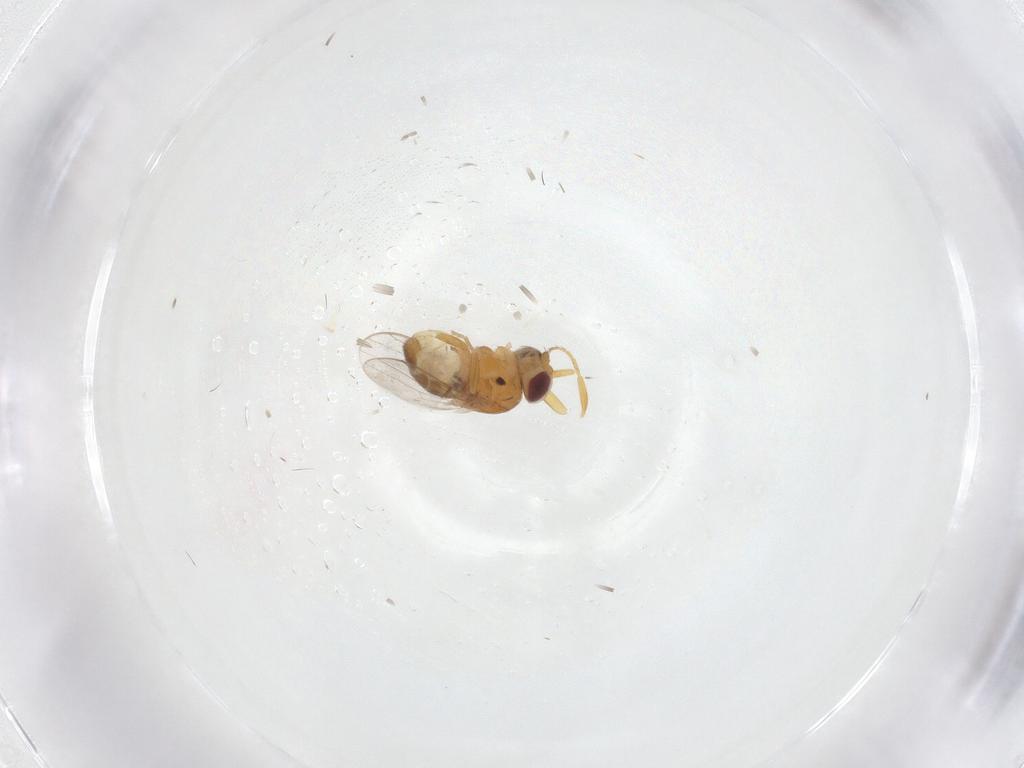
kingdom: Animalia
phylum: Arthropoda
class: Insecta
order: Diptera
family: Chloropidae
